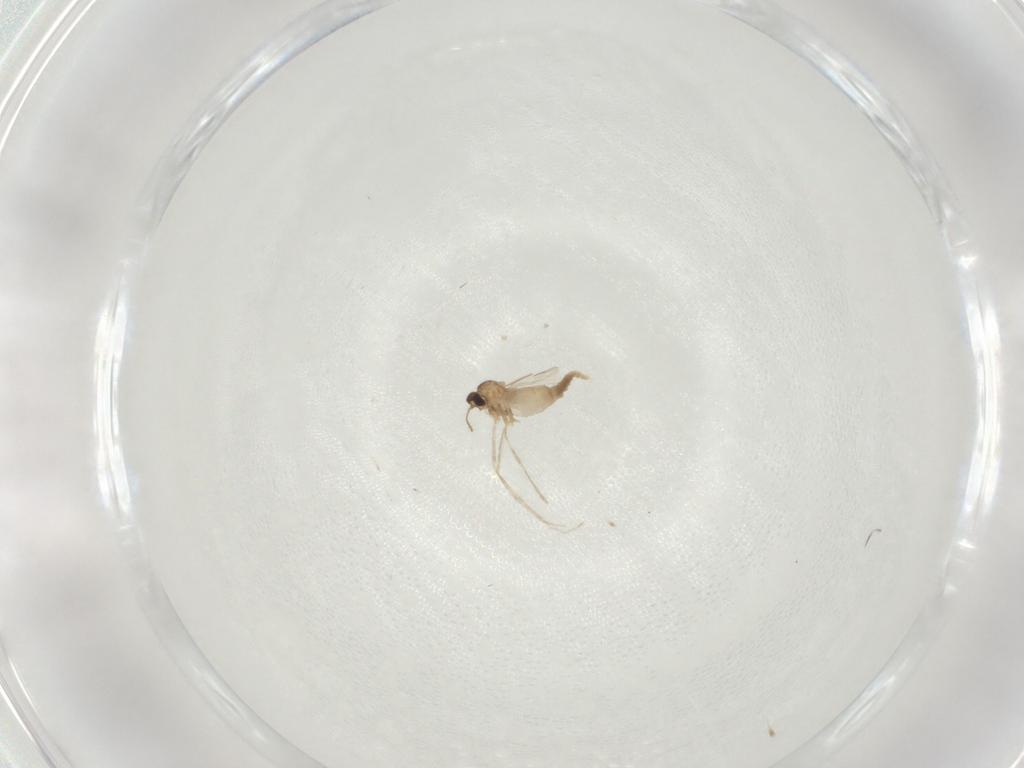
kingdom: Animalia
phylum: Arthropoda
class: Insecta
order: Diptera
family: Cecidomyiidae
